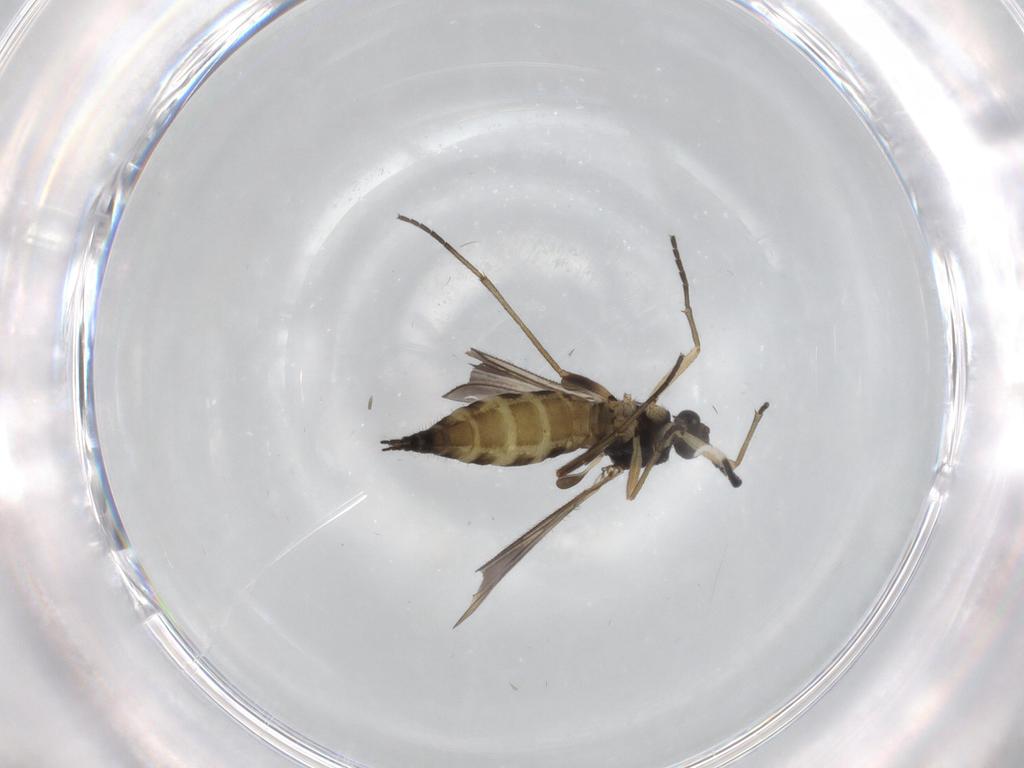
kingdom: Animalia
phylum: Arthropoda
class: Insecta
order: Diptera
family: Sciaridae
